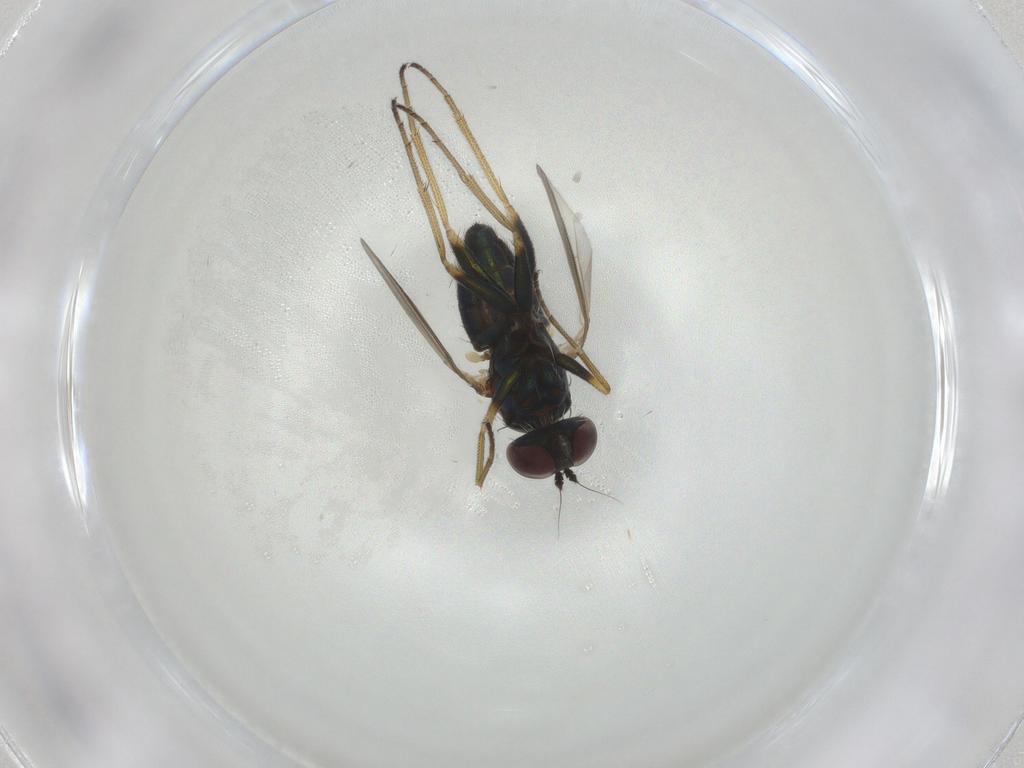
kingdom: Animalia
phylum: Arthropoda
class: Insecta
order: Diptera
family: Dolichopodidae
